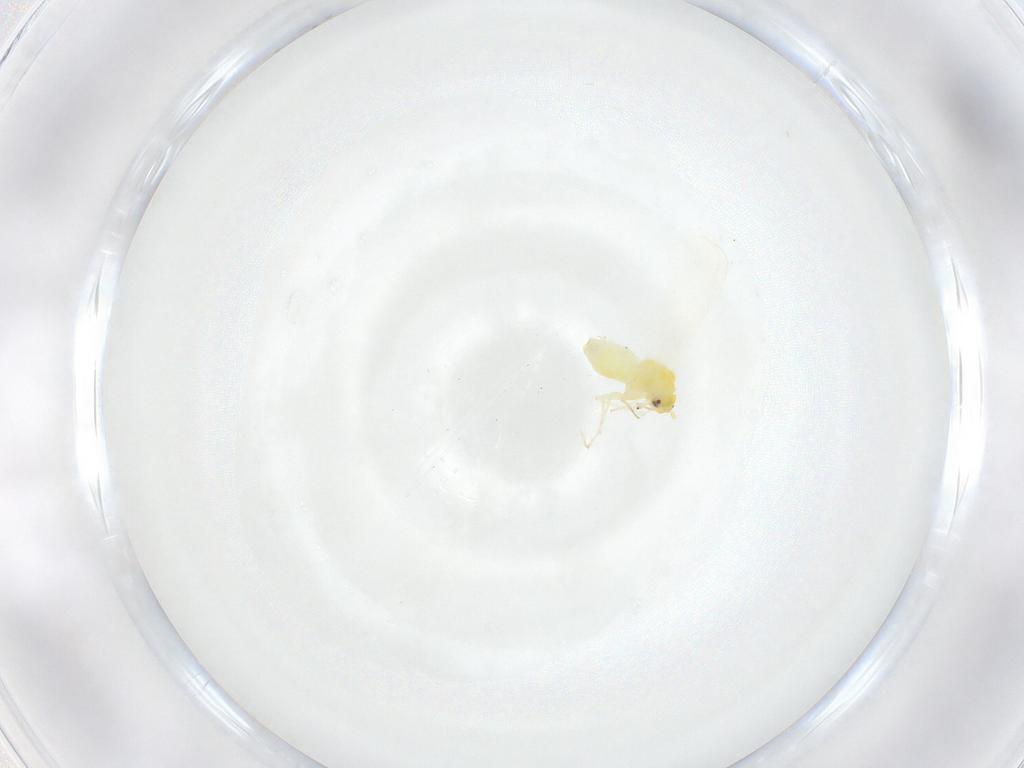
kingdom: Animalia
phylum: Arthropoda
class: Insecta
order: Hemiptera
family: Aleyrodidae
